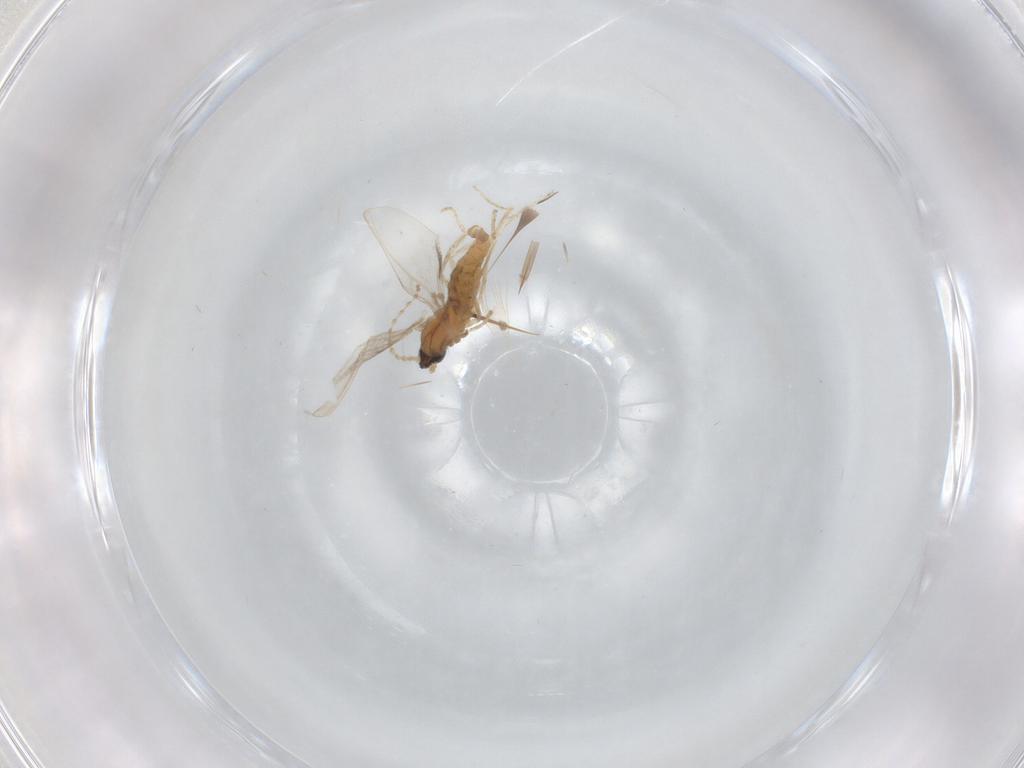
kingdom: Animalia
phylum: Arthropoda
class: Insecta
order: Diptera
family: Cecidomyiidae
